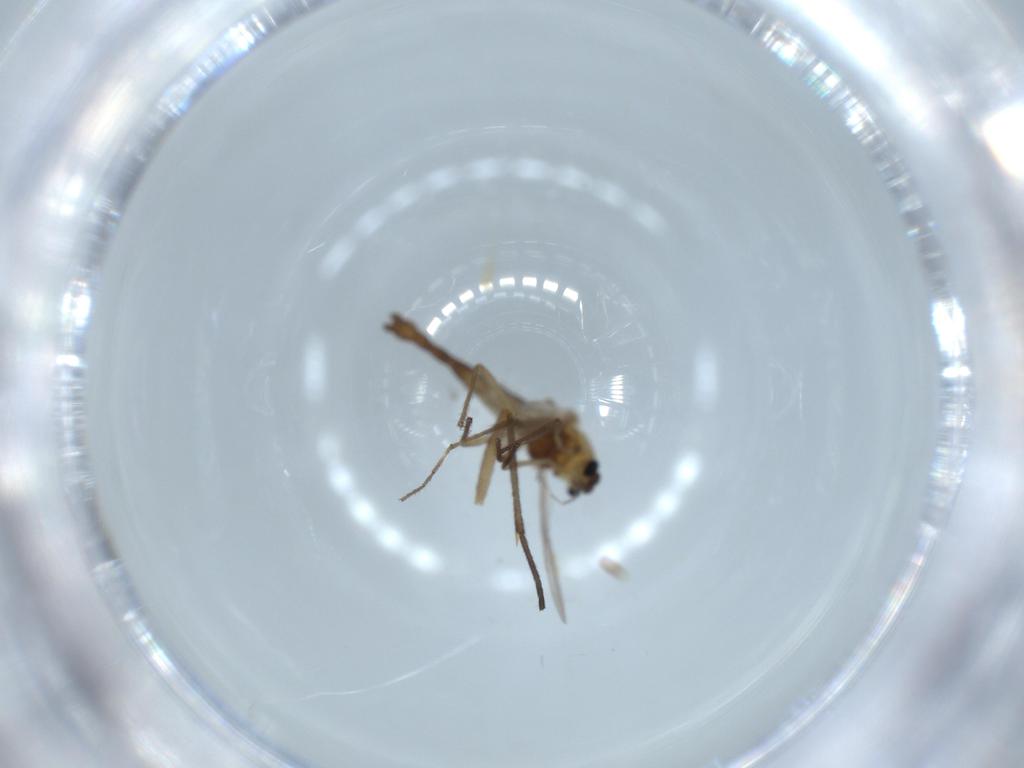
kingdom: Animalia
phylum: Arthropoda
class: Insecta
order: Diptera
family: Chironomidae
